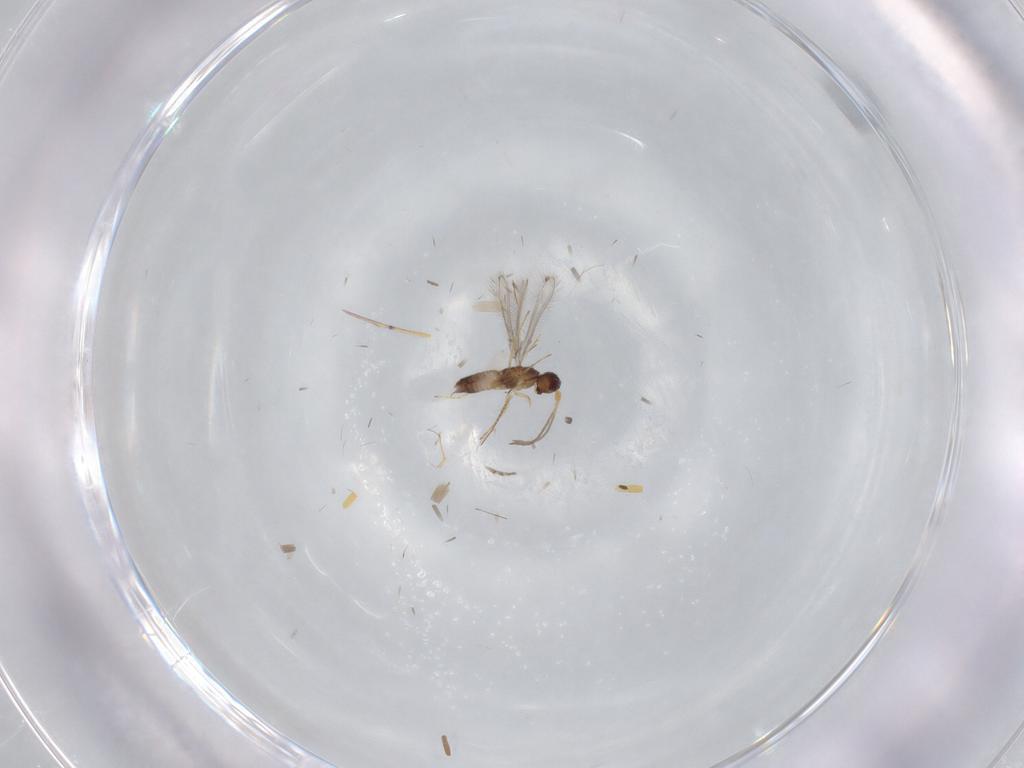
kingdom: Animalia
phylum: Arthropoda
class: Insecta
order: Hymenoptera
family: Mymaridae
